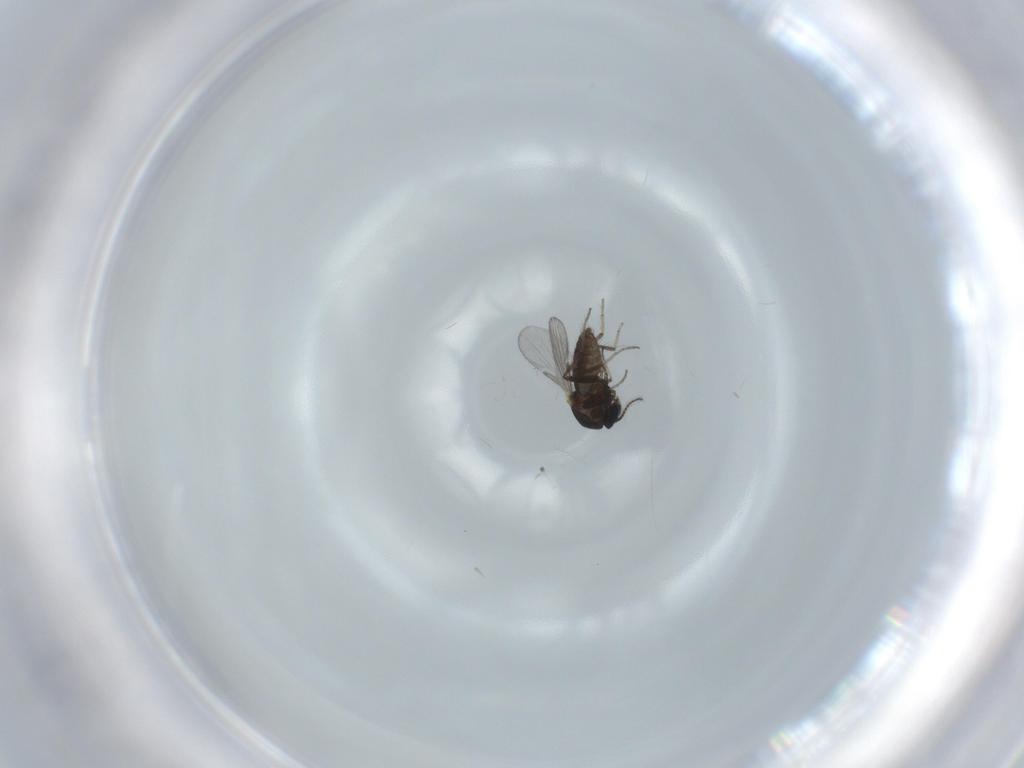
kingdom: Animalia
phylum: Arthropoda
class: Insecta
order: Diptera
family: Ceratopogonidae
